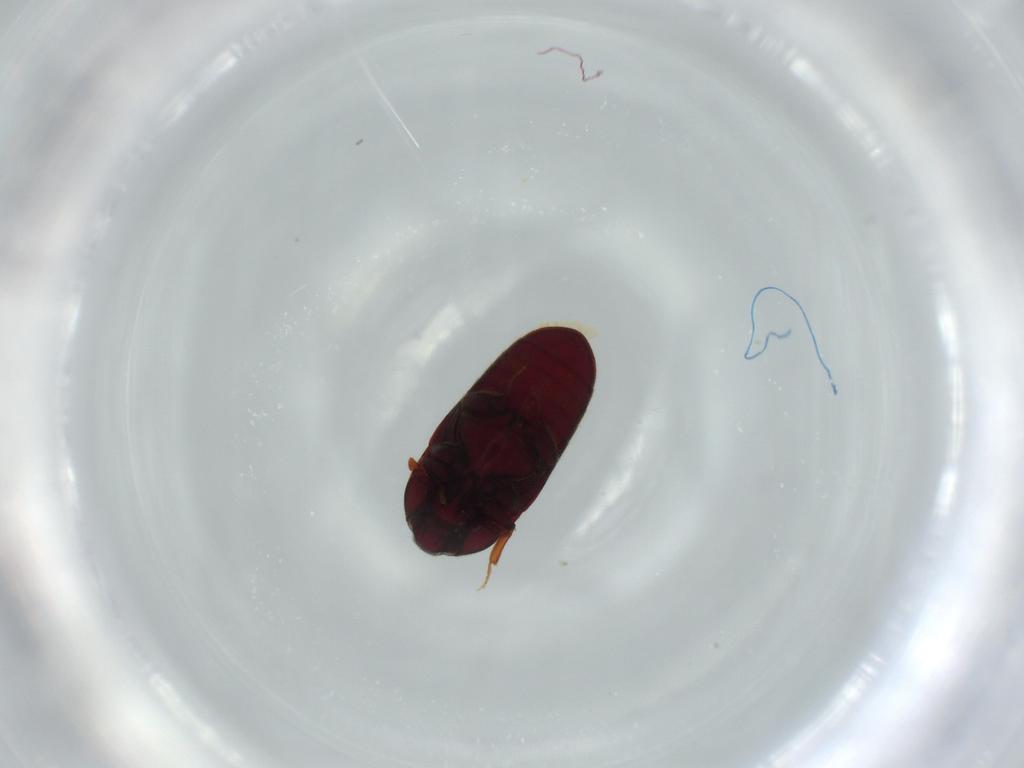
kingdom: Animalia
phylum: Arthropoda
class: Insecta
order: Coleoptera
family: Throscidae
